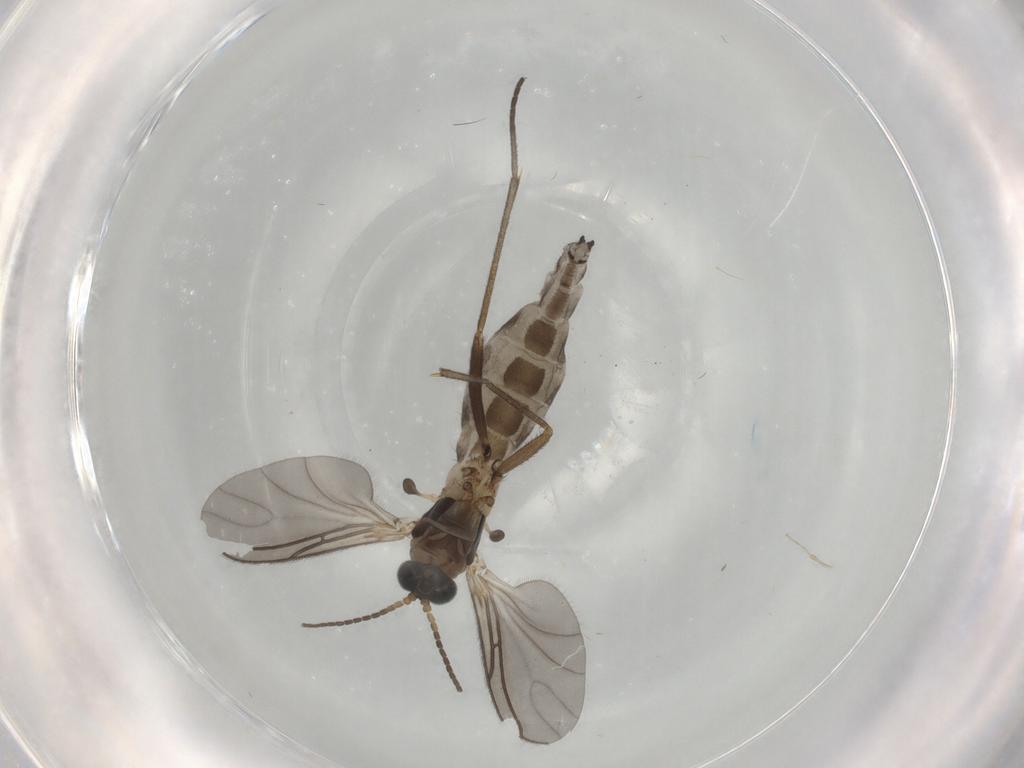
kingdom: Animalia
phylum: Arthropoda
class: Insecta
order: Diptera
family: Sciaridae
